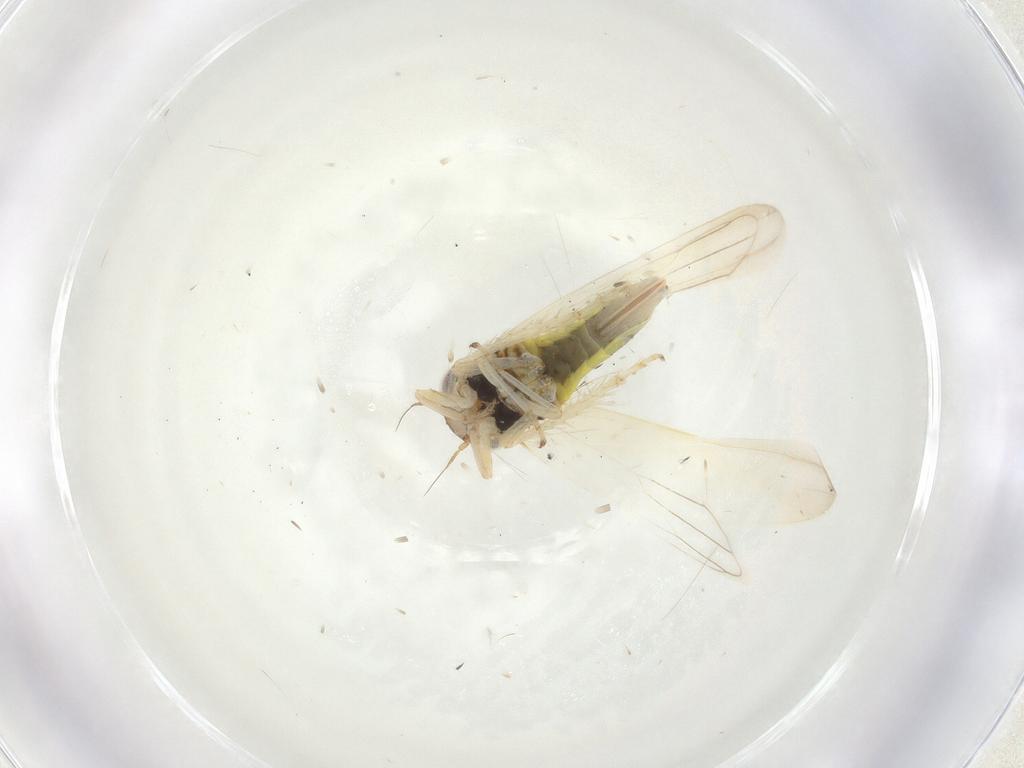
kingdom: Animalia
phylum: Arthropoda
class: Insecta
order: Hemiptera
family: Cicadellidae
